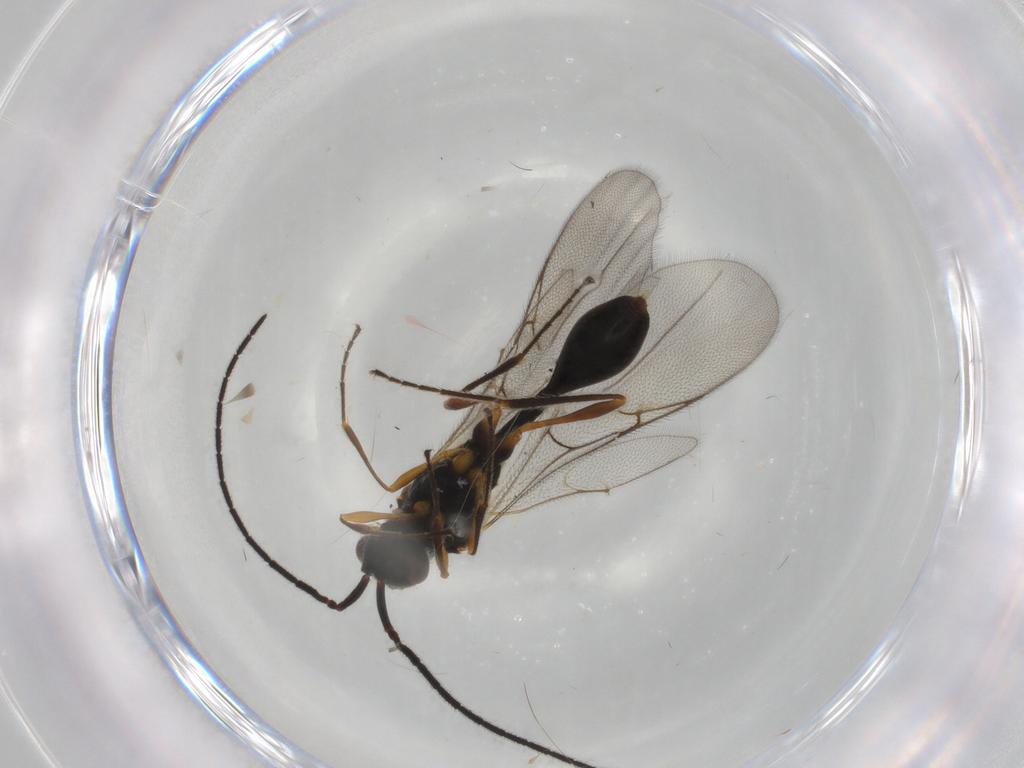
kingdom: Animalia
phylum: Arthropoda
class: Insecta
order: Hymenoptera
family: Diapriidae
